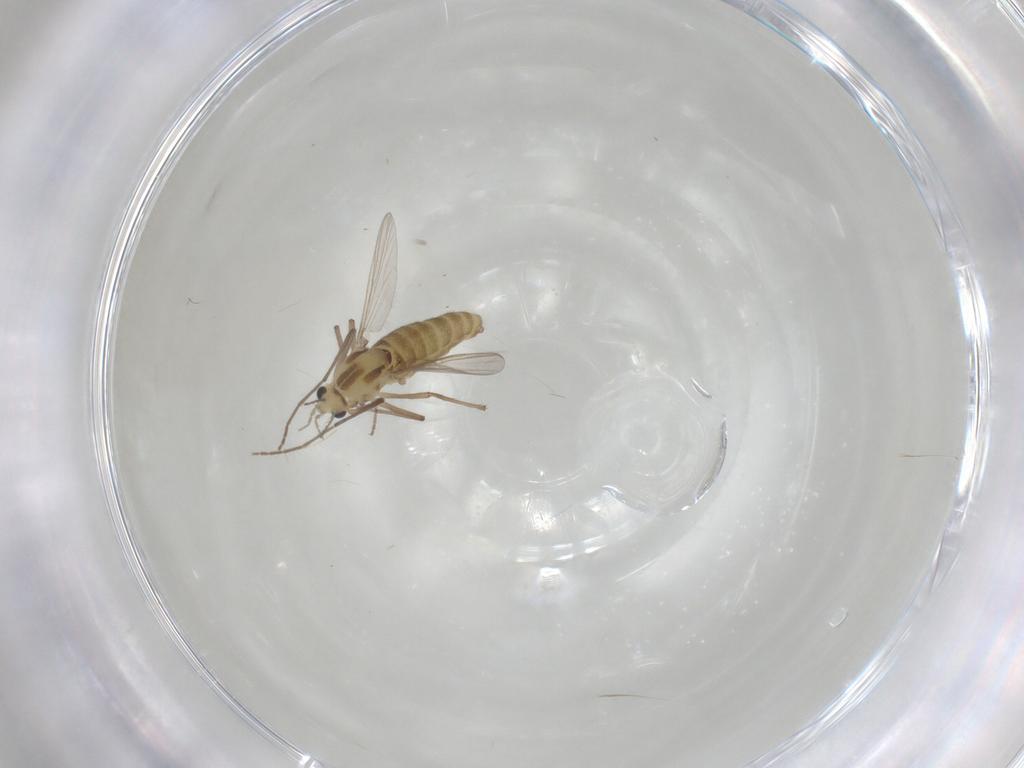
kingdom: Animalia
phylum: Arthropoda
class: Insecta
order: Diptera
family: Chironomidae
